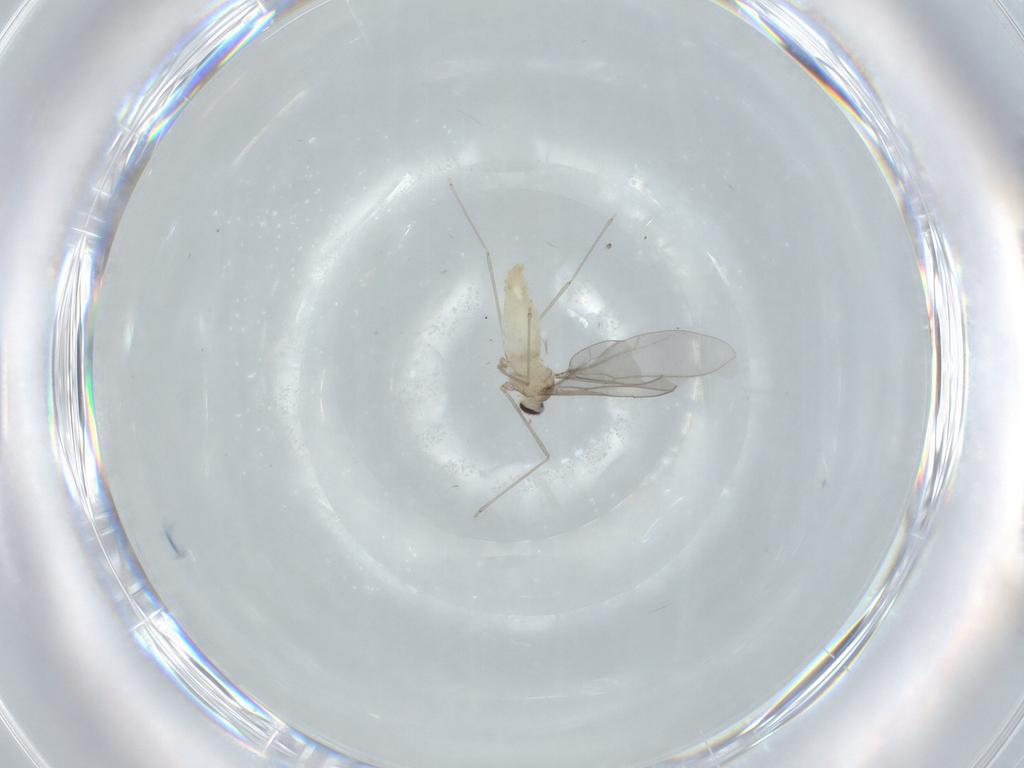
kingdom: Animalia
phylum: Arthropoda
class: Insecta
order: Diptera
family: Cecidomyiidae
